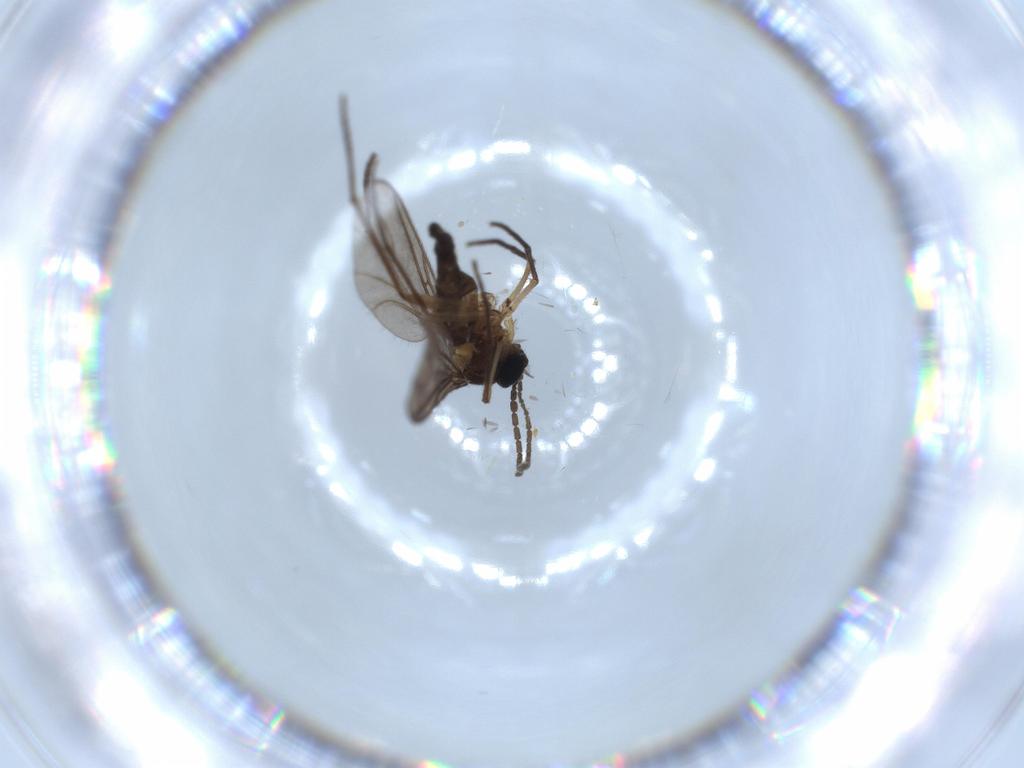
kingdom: Animalia
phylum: Arthropoda
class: Insecta
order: Diptera
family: Sciaridae
